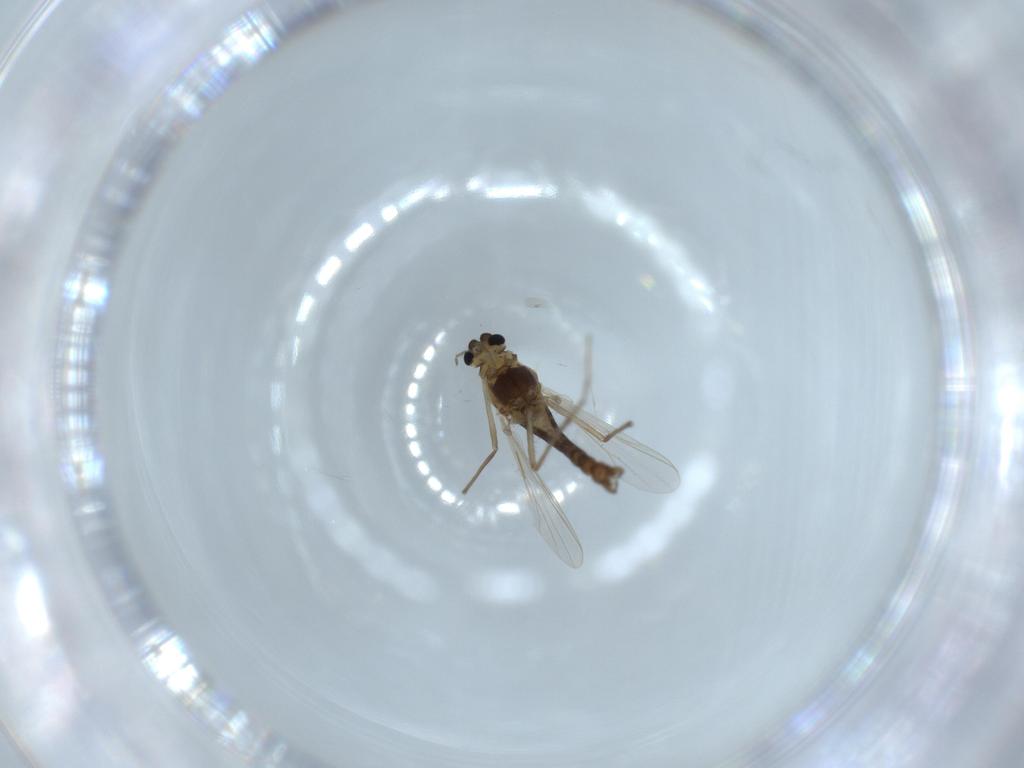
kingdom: Animalia
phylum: Arthropoda
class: Insecta
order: Diptera
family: Chironomidae
